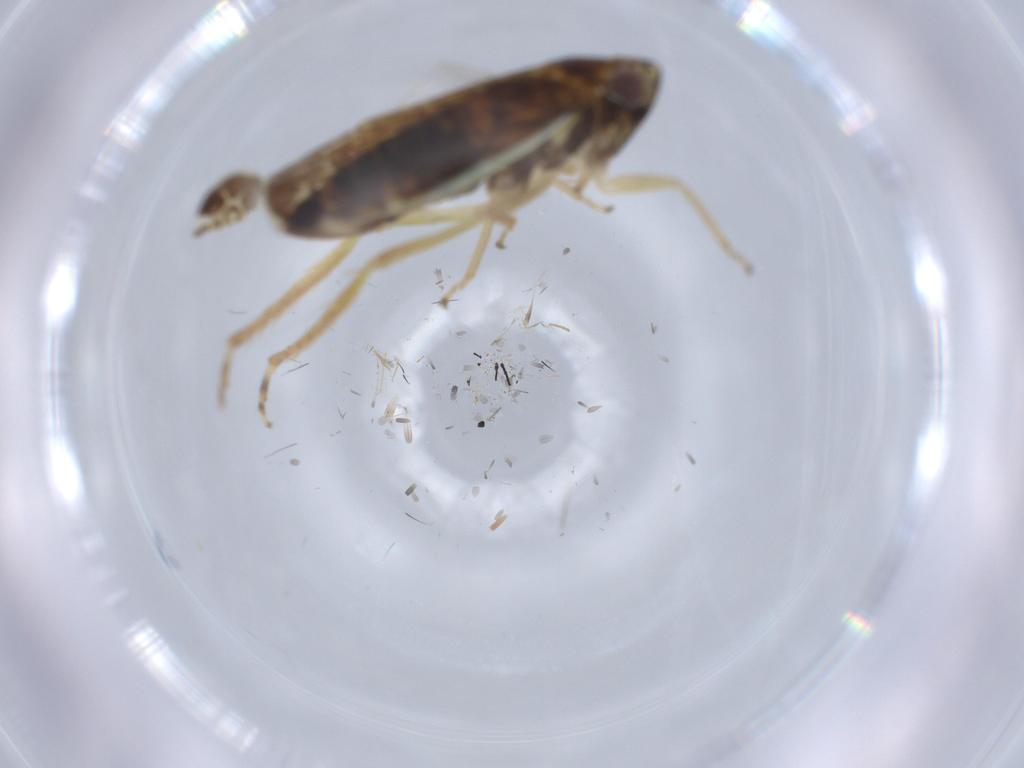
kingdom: Animalia
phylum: Arthropoda
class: Insecta
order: Hemiptera
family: Cicadellidae
